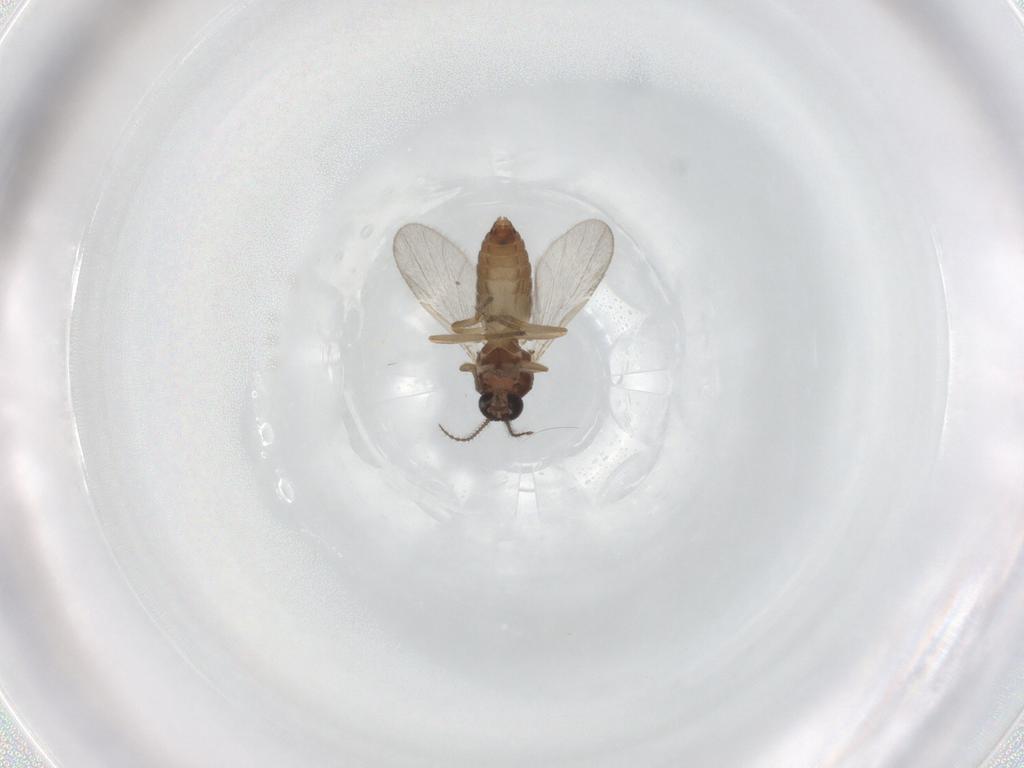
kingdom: Animalia
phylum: Arthropoda
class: Insecta
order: Diptera
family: Ceratopogonidae
